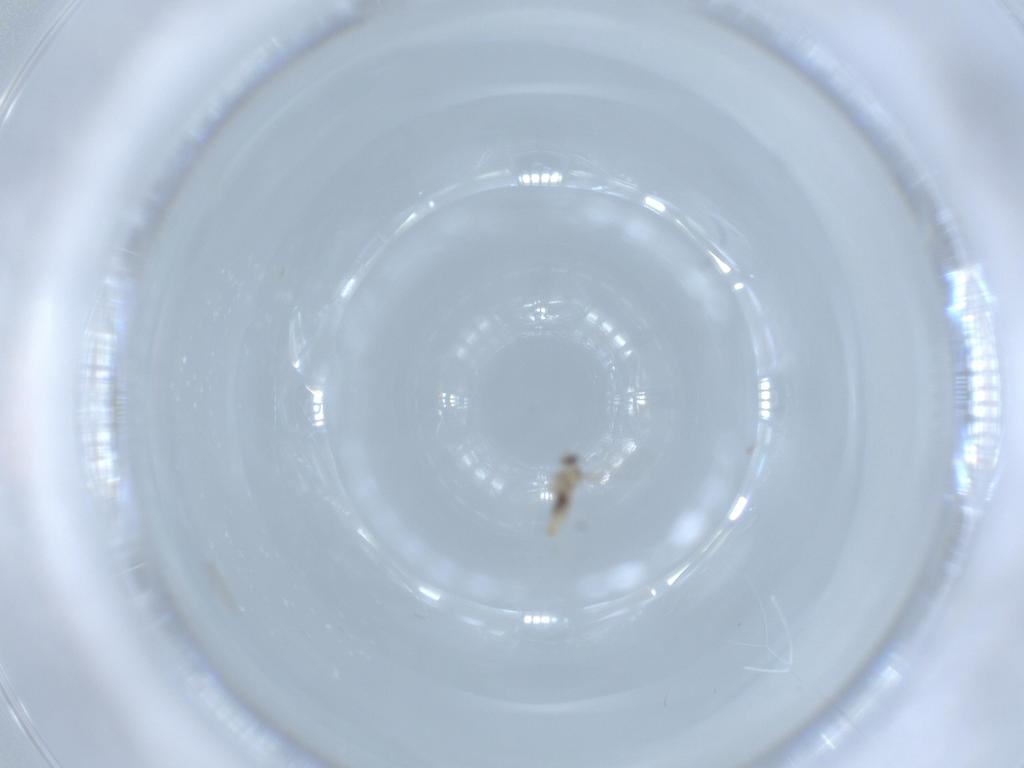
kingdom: Animalia
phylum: Arthropoda
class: Insecta
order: Diptera
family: Cecidomyiidae
